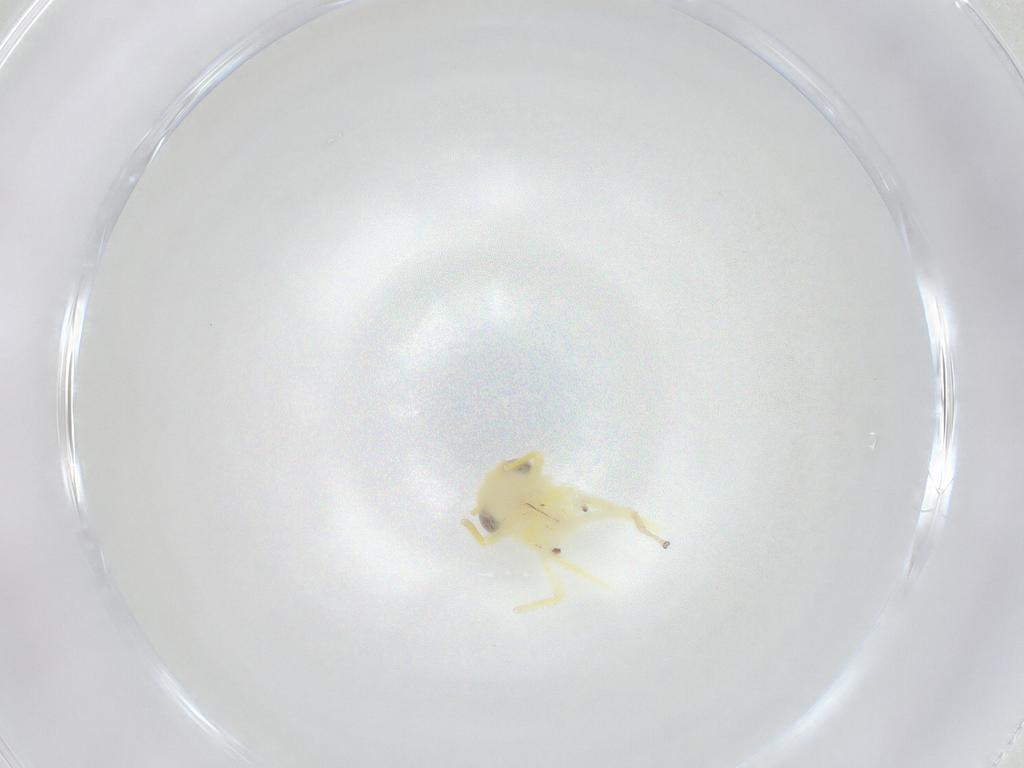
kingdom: Animalia
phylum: Arthropoda
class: Insecta
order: Hemiptera
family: Cicadellidae
